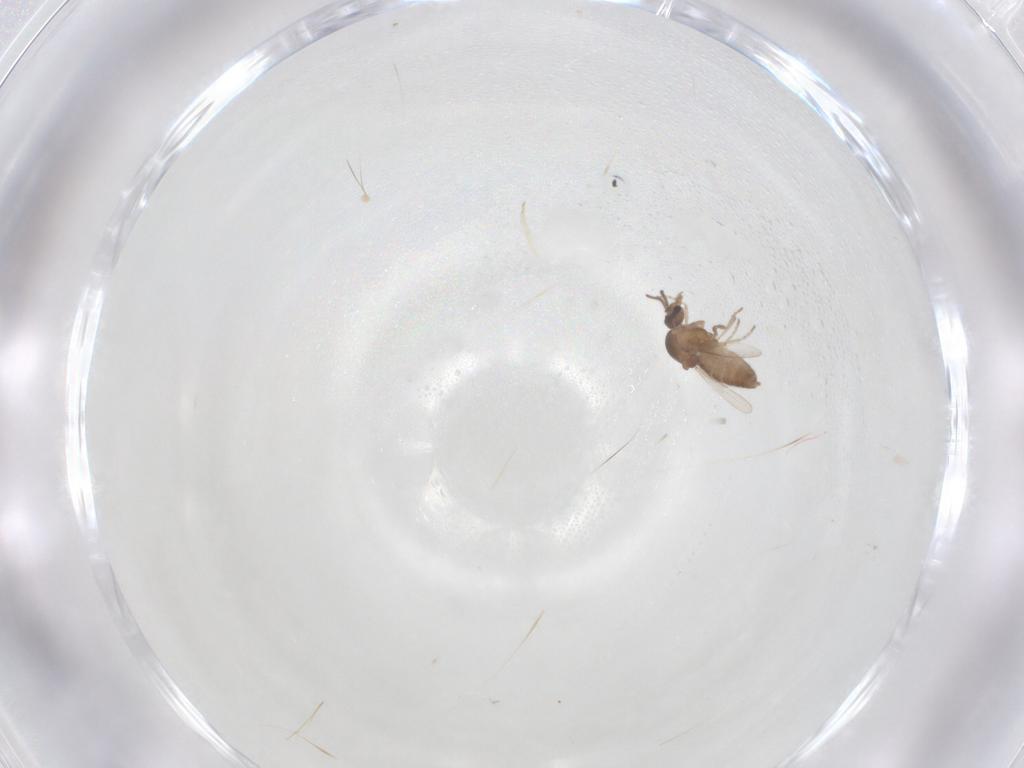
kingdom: Animalia
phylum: Arthropoda
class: Insecta
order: Diptera
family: Ceratopogonidae
